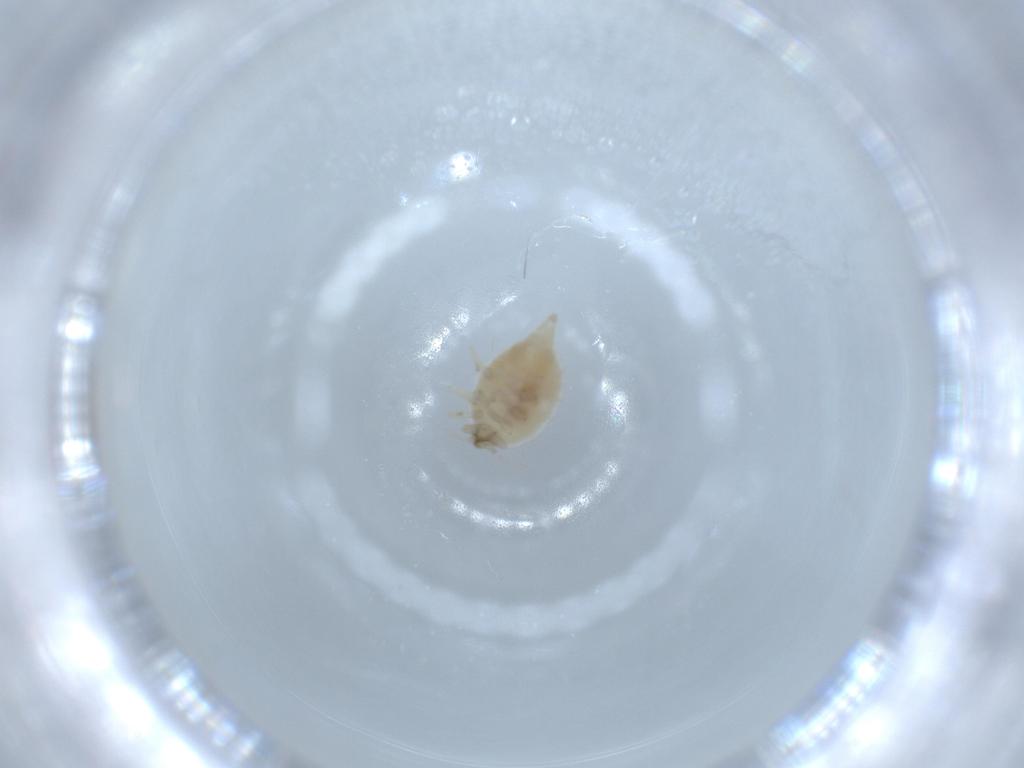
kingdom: Animalia
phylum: Arthropoda
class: Insecta
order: Neuroptera
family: Coniopterygidae
